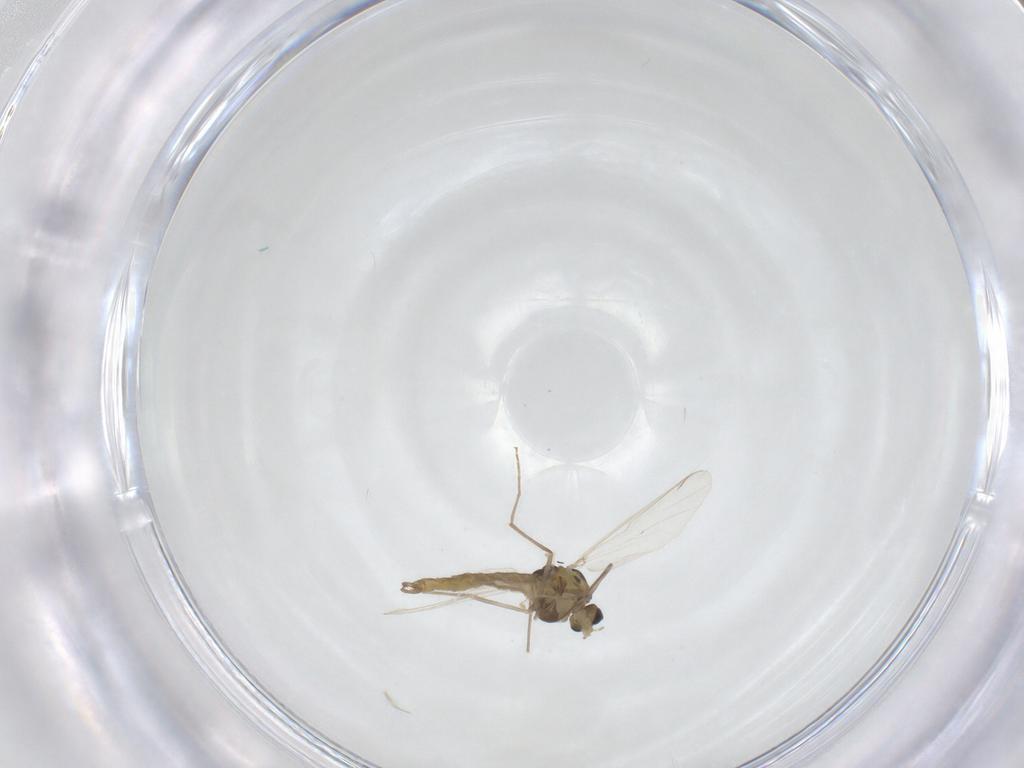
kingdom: Animalia
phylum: Arthropoda
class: Insecta
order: Diptera
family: Chironomidae
